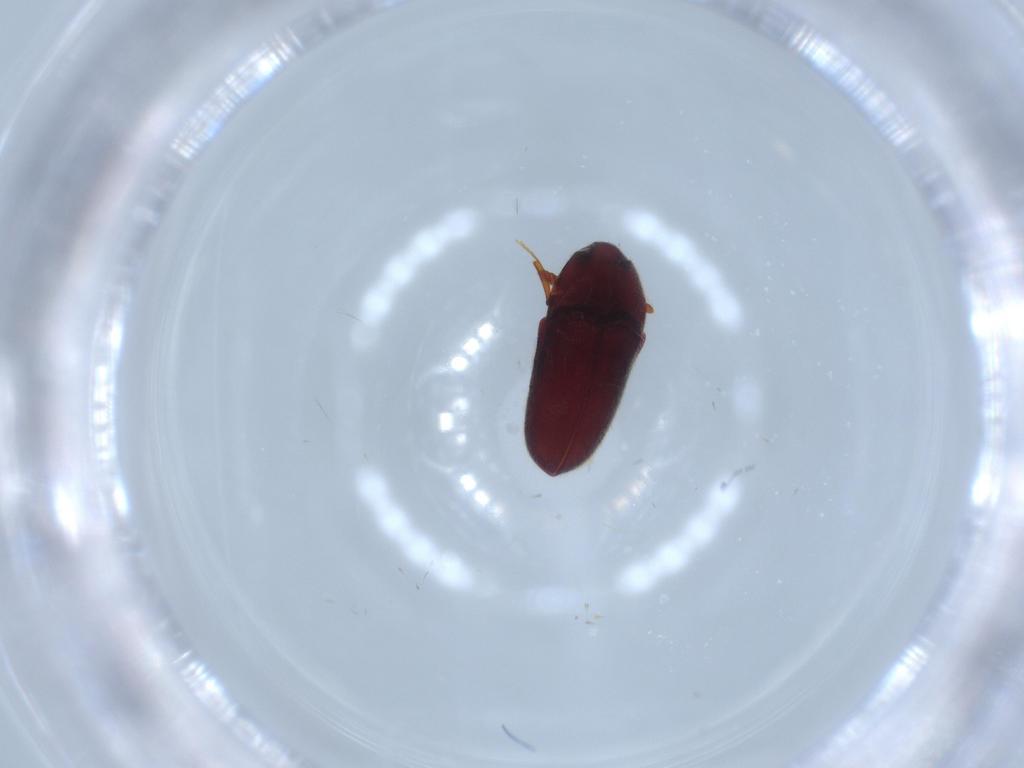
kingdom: Animalia
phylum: Arthropoda
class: Insecta
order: Coleoptera
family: Throscidae
